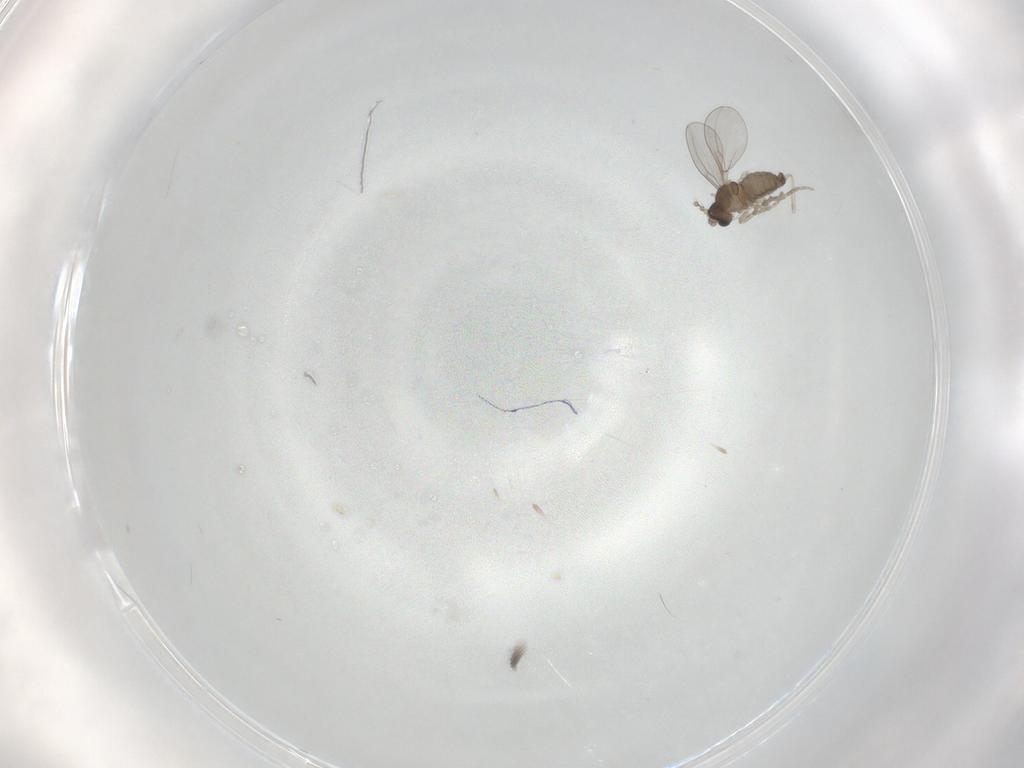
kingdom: Animalia
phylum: Arthropoda
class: Insecta
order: Diptera
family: Cecidomyiidae
